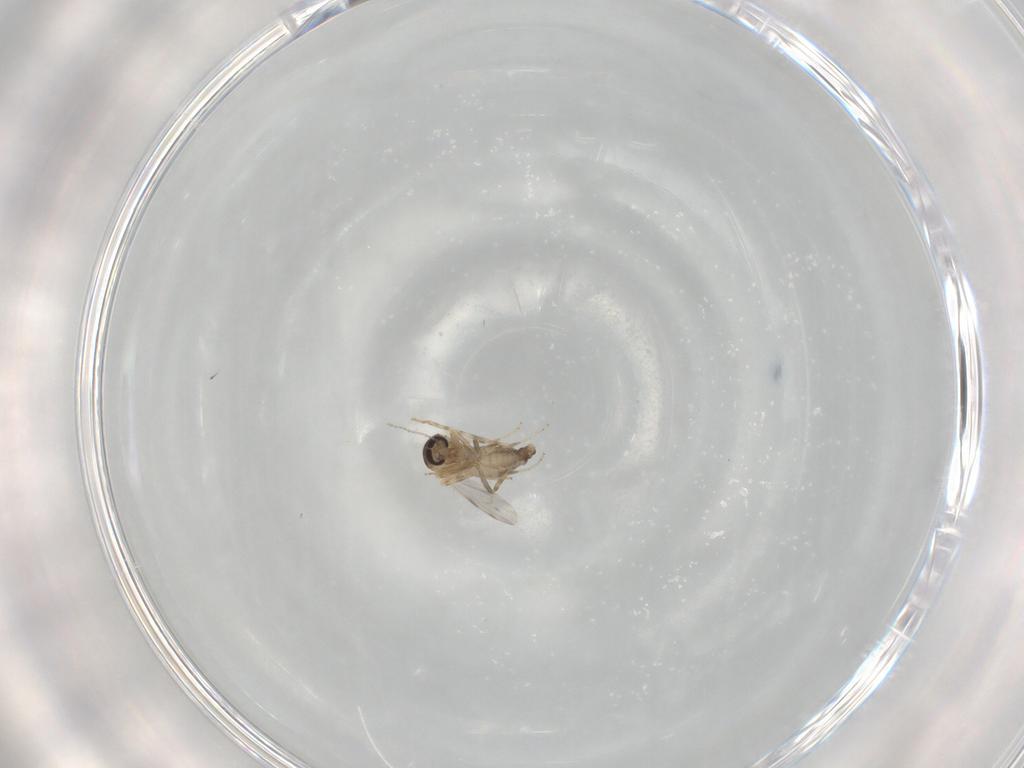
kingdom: Animalia
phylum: Arthropoda
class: Insecta
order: Diptera
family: Ceratopogonidae
